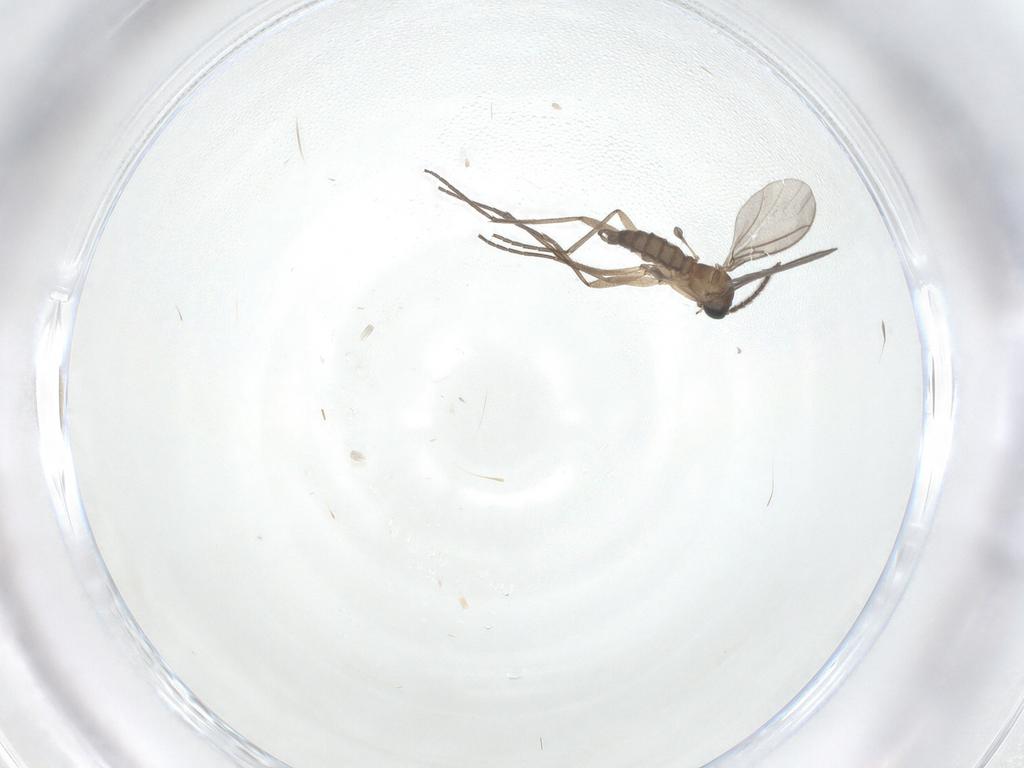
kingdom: Animalia
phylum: Arthropoda
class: Insecta
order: Diptera
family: Sciaridae
